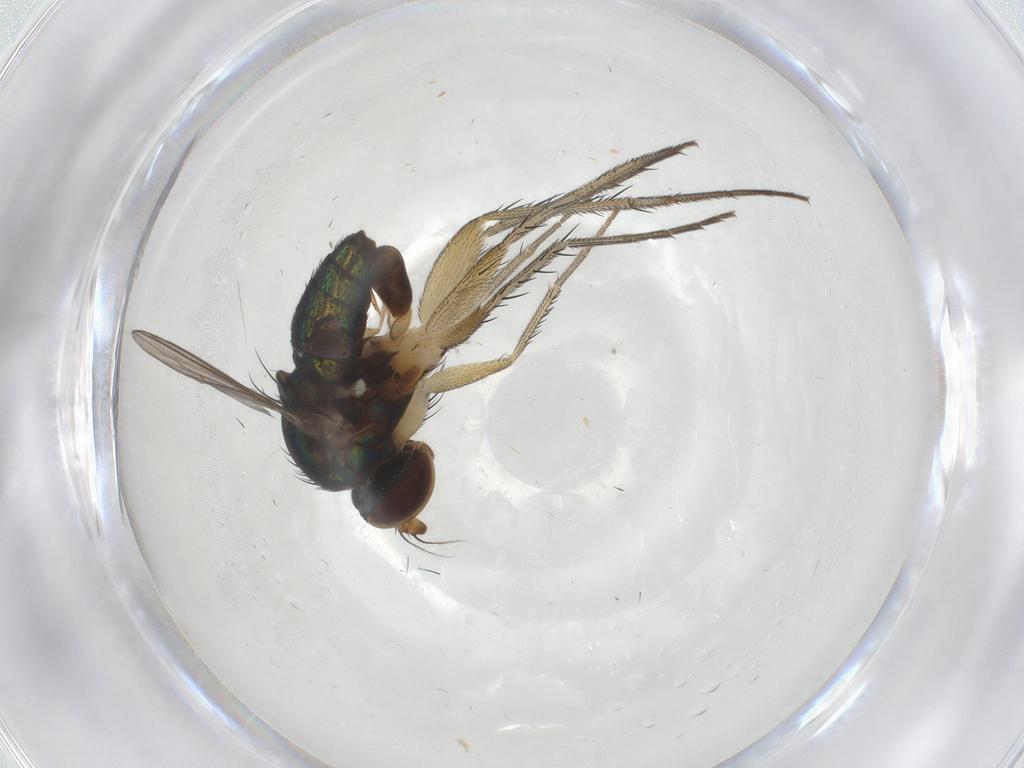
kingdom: Animalia
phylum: Arthropoda
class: Insecta
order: Diptera
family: Dolichopodidae
